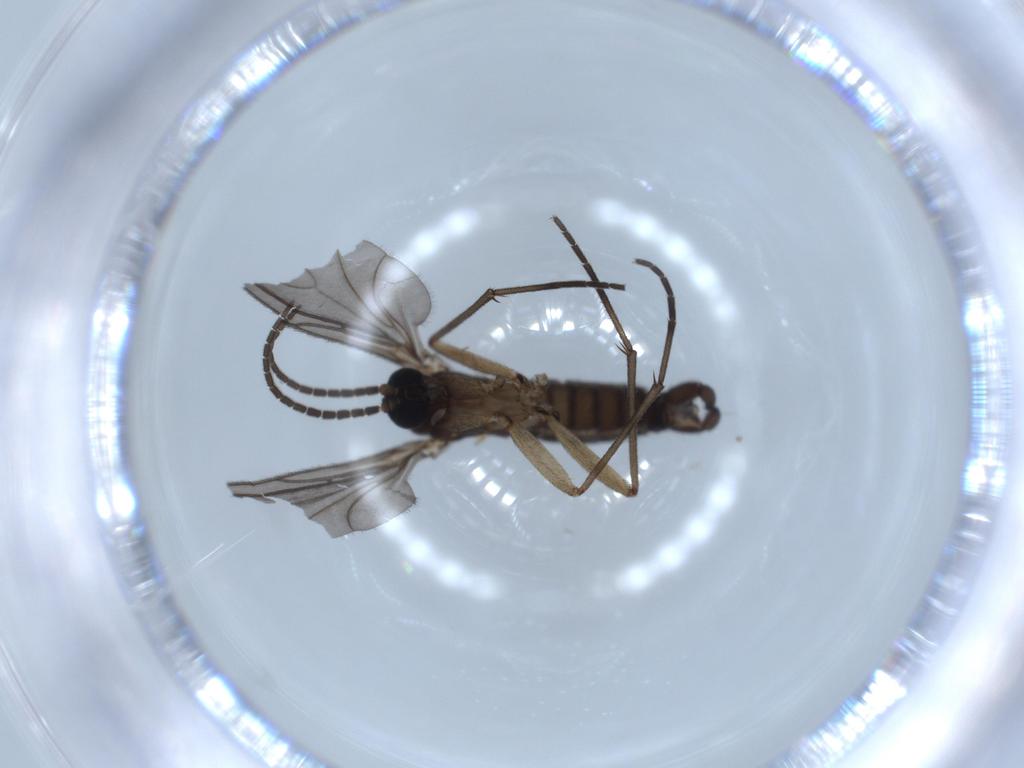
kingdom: Animalia
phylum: Arthropoda
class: Insecta
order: Diptera
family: Sciaridae
